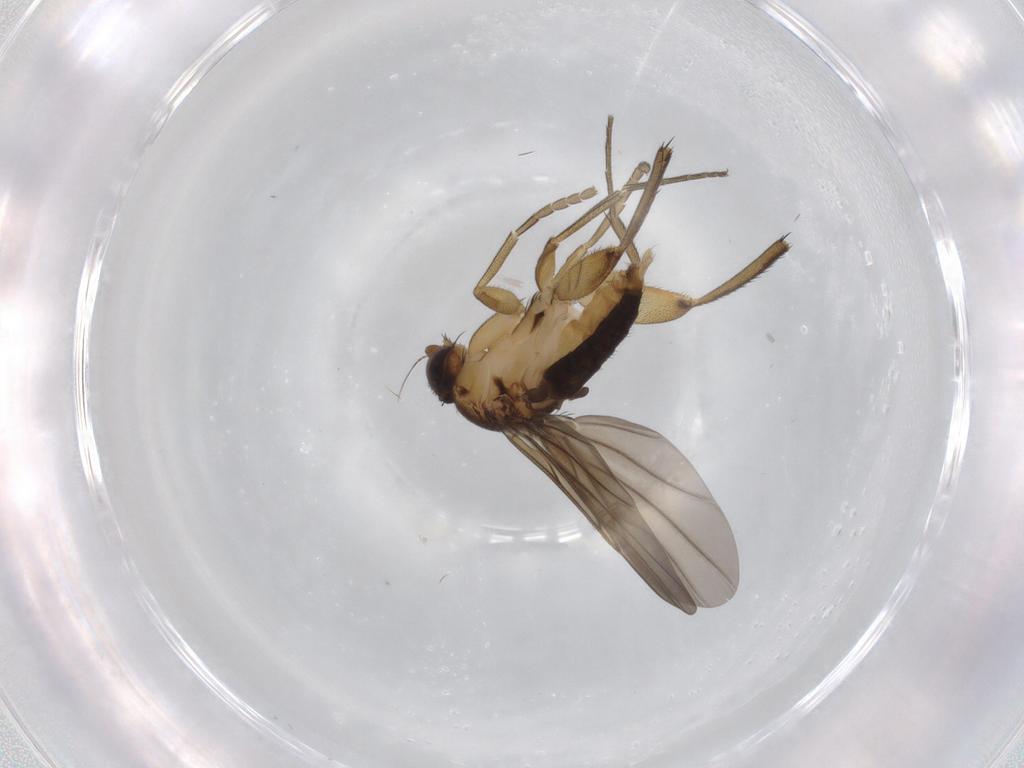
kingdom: Animalia
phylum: Arthropoda
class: Insecta
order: Diptera
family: Phoridae
